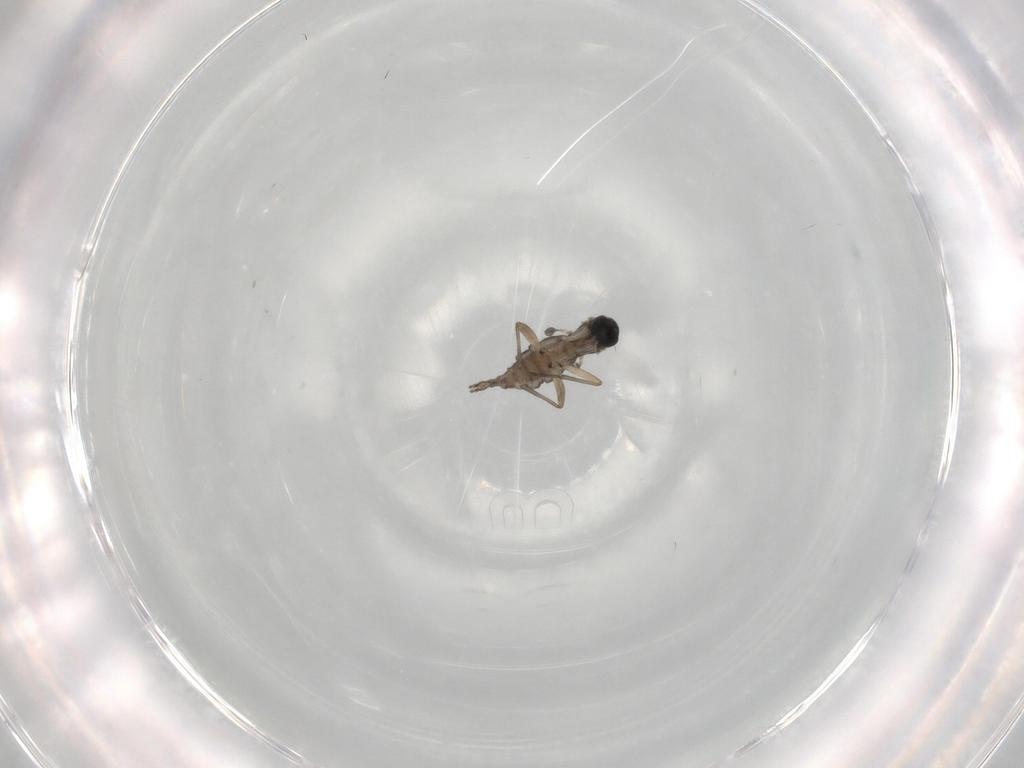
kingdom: Animalia
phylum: Arthropoda
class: Insecta
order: Diptera
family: Sciaridae
